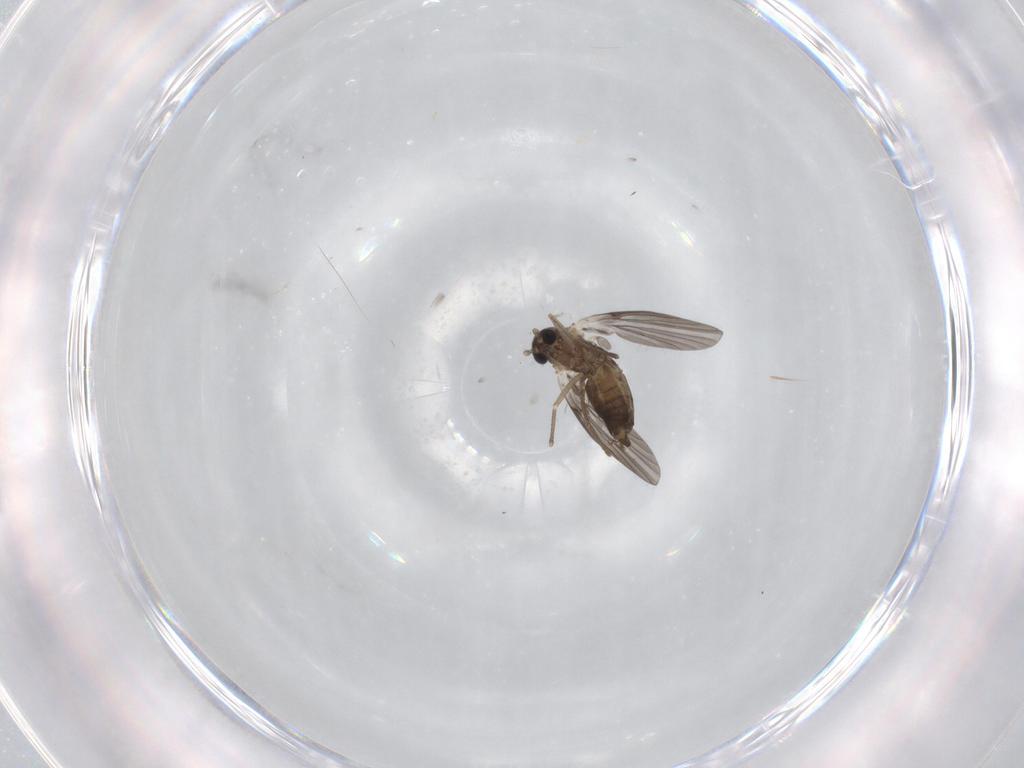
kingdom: Animalia
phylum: Arthropoda
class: Insecta
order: Diptera
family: Dolichopodidae
